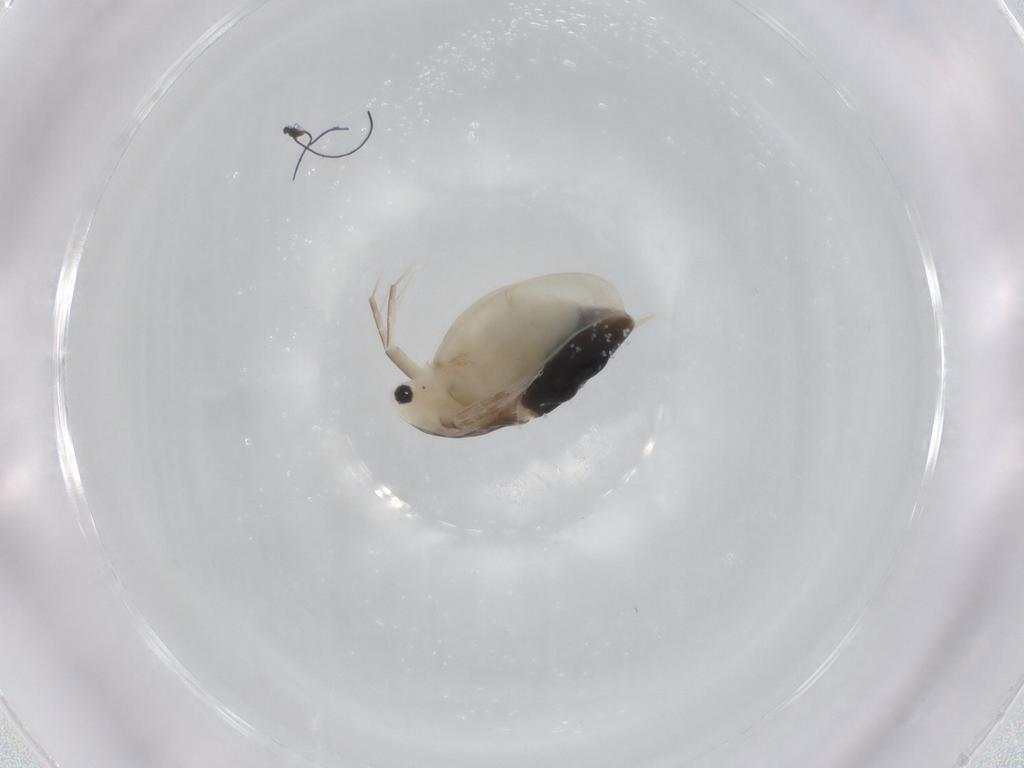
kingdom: Animalia
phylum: Arthropoda
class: Branchiopoda
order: Diplostraca
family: Daphniidae
